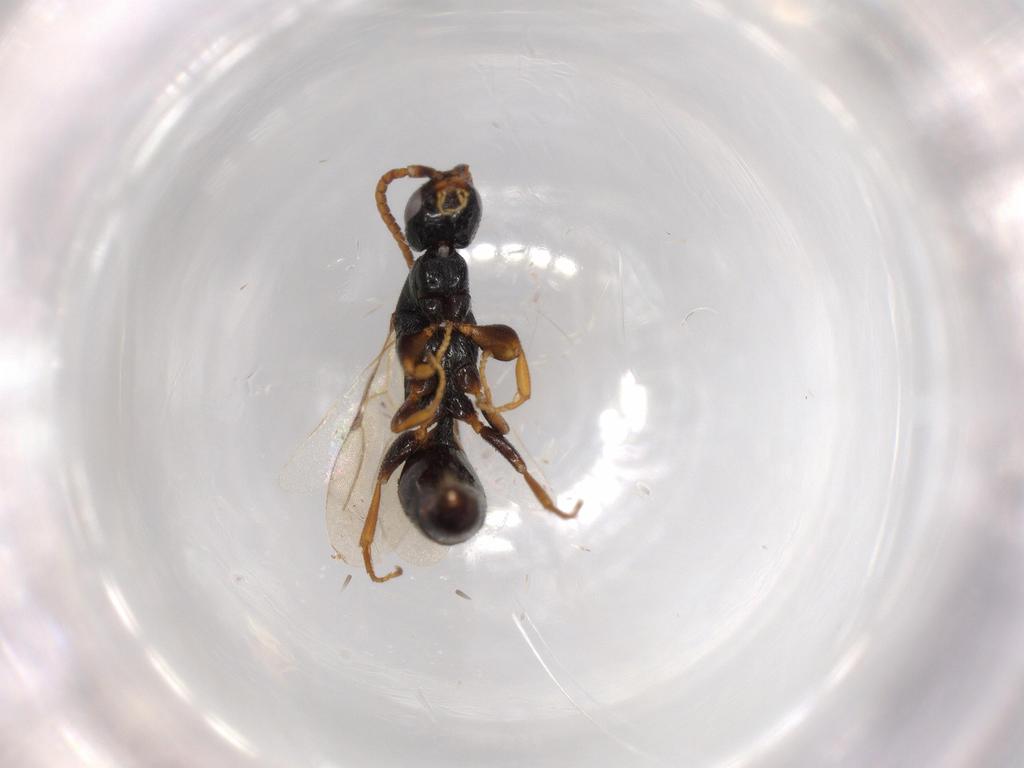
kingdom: Animalia
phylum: Arthropoda
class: Insecta
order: Hymenoptera
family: Bethylidae
